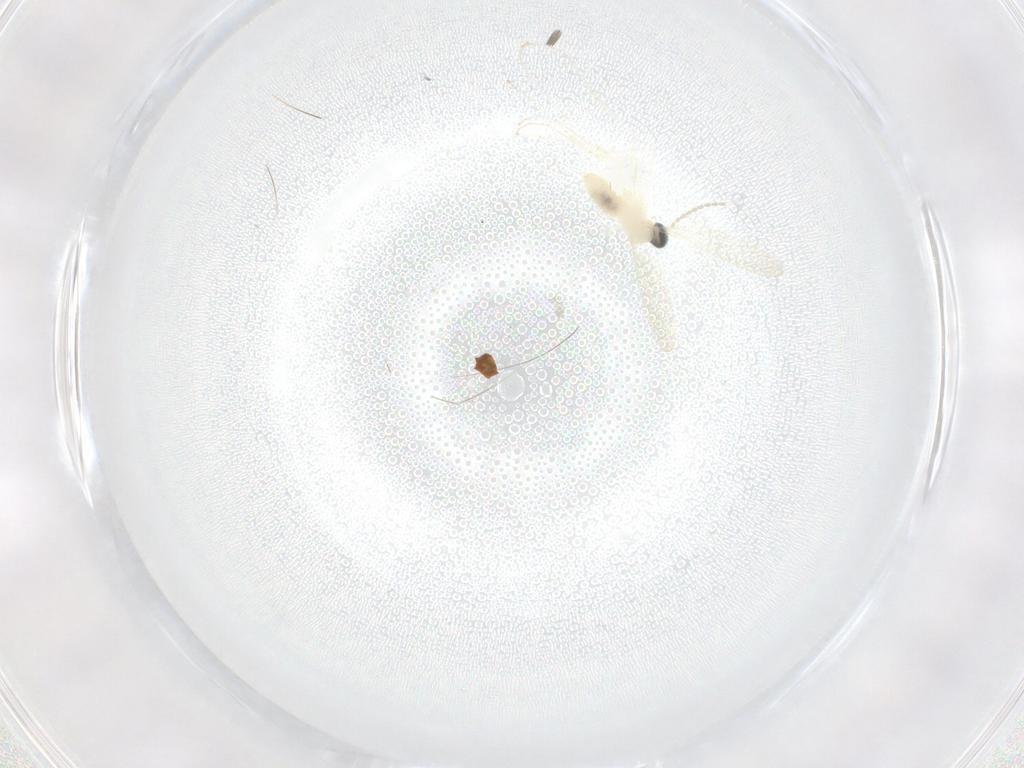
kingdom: Animalia
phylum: Arthropoda
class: Insecta
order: Diptera
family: Cecidomyiidae
